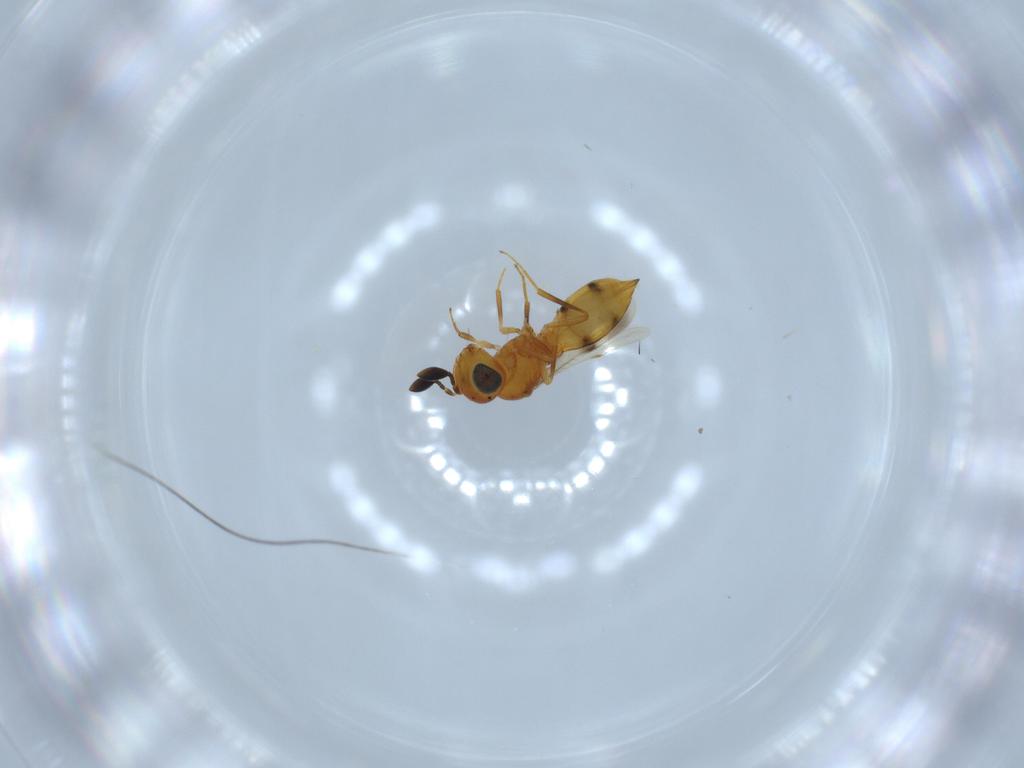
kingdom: Animalia
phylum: Arthropoda
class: Insecta
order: Hymenoptera
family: Scelionidae
